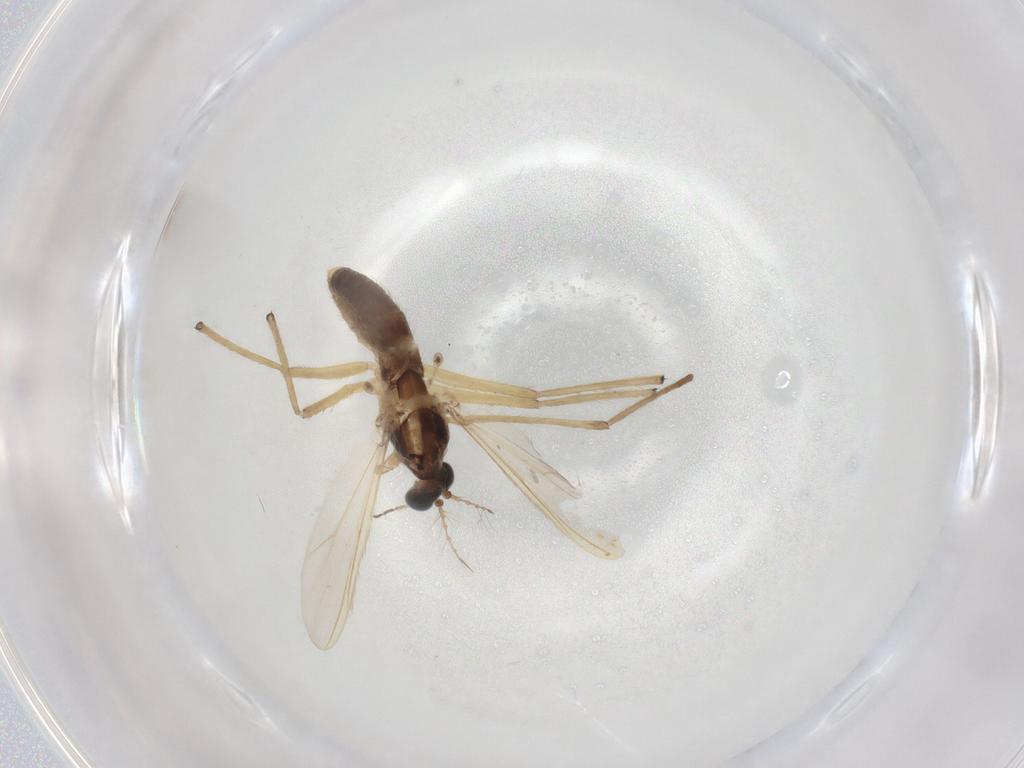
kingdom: Animalia
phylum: Arthropoda
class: Insecta
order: Diptera
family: Chironomidae
